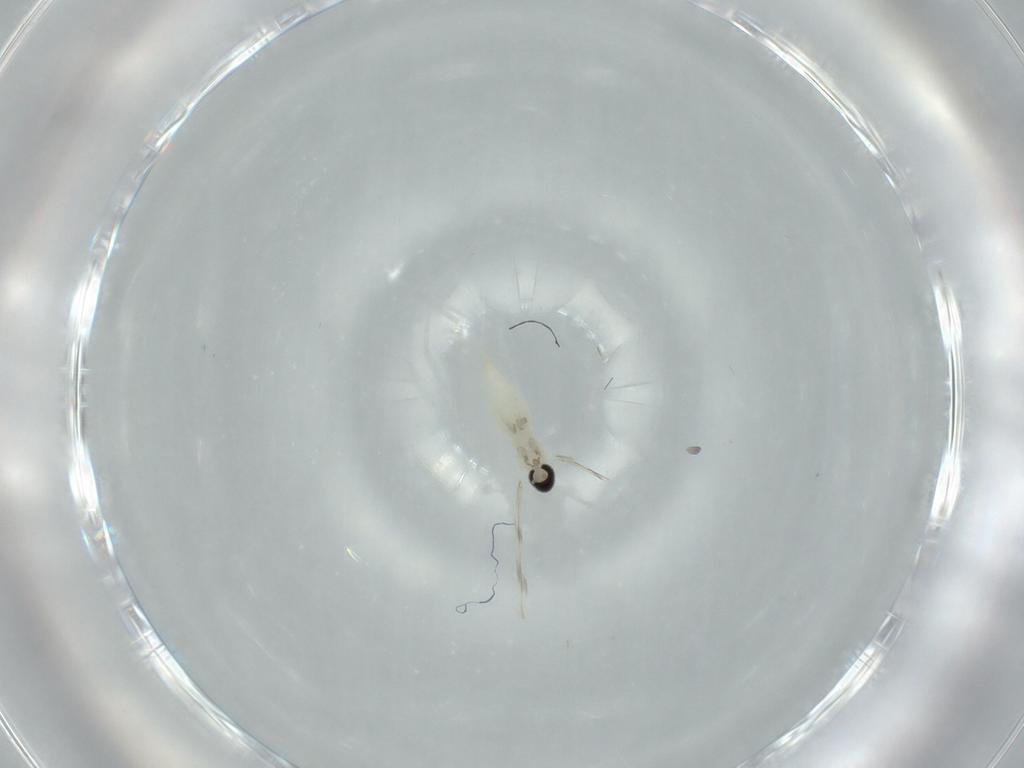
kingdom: Animalia
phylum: Arthropoda
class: Insecta
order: Diptera
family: Cecidomyiidae
